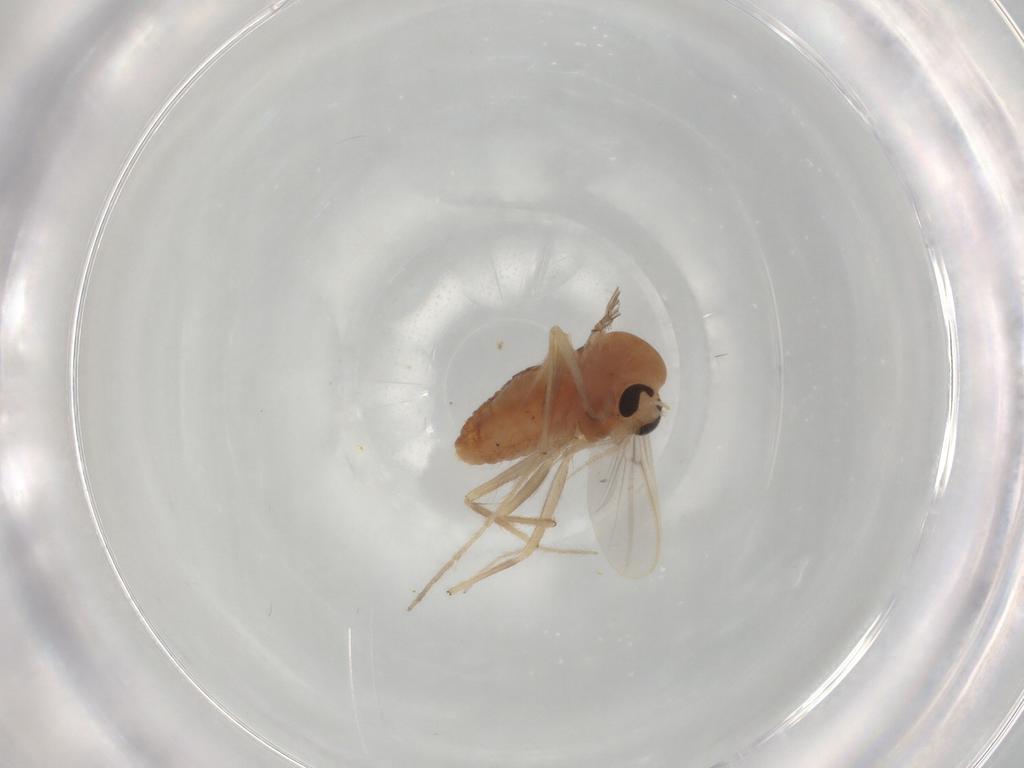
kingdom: Animalia
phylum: Arthropoda
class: Insecta
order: Diptera
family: Chironomidae
